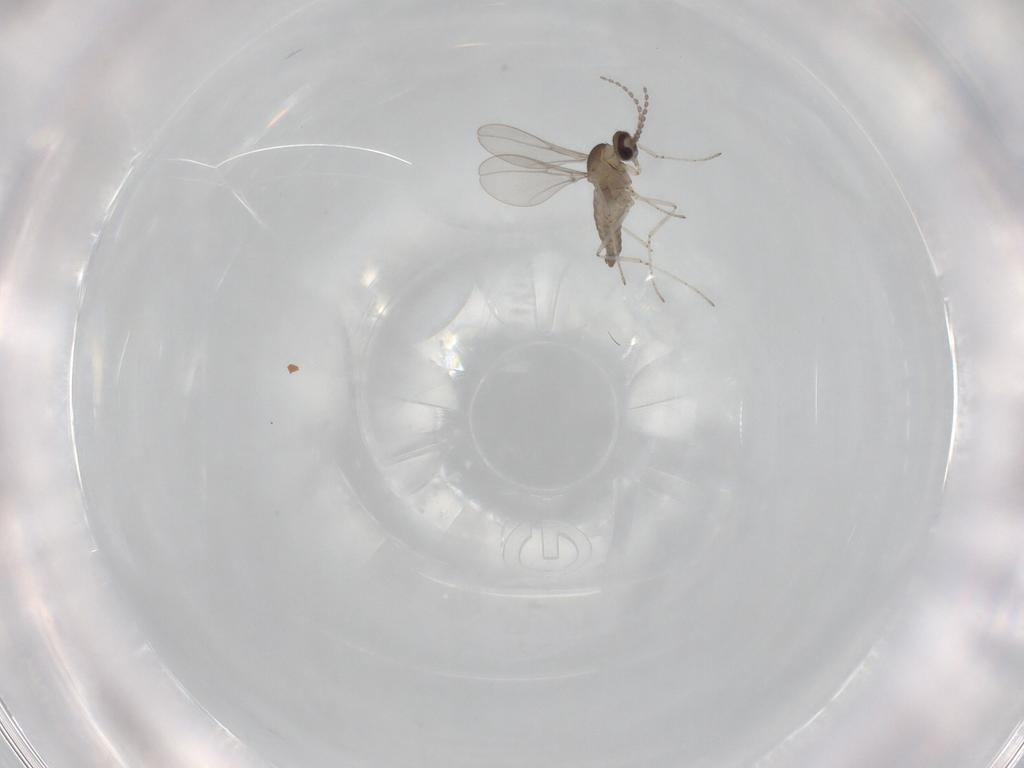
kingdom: Animalia
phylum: Arthropoda
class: Insecta
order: Diptera
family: Cecidomyiidae
